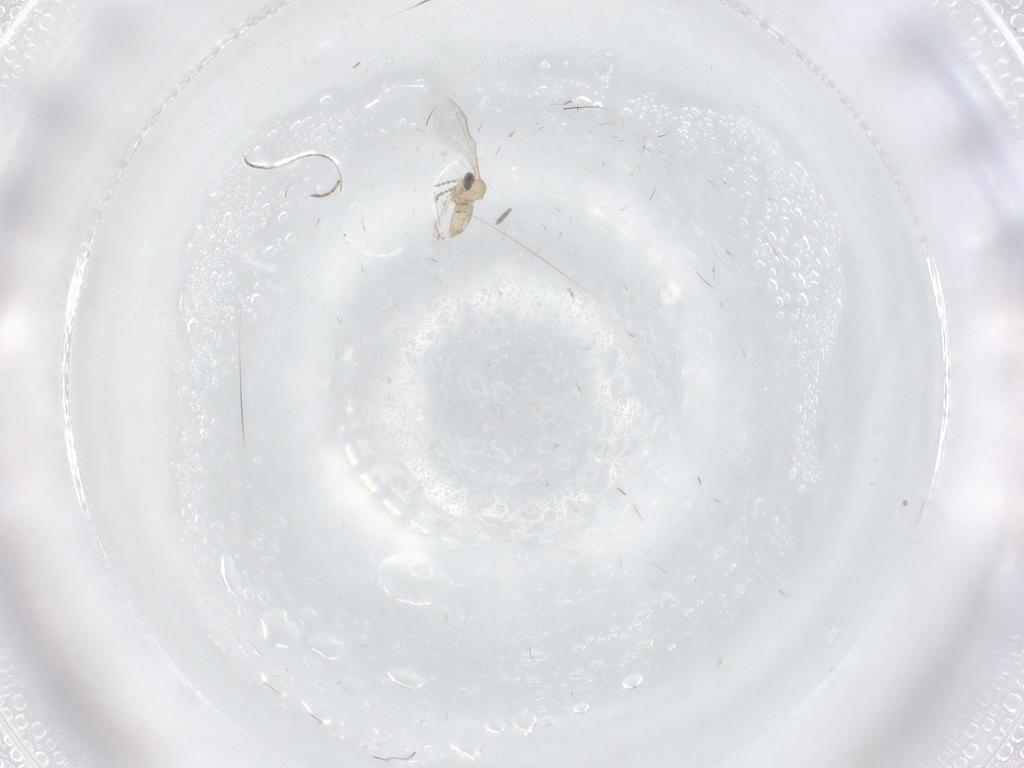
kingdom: Animalia
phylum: Arthropoda
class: Insecta
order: Diptera
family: Cecidomyiidae
